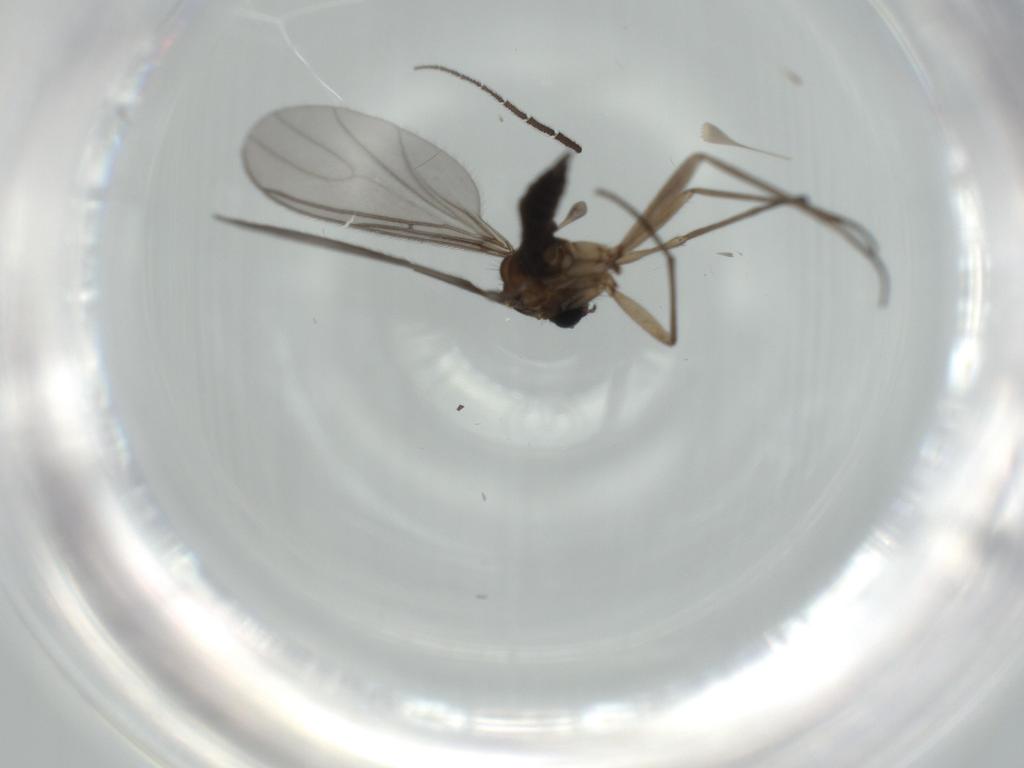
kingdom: Animalia
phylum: Arthropoda
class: Insecta
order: Diptera
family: Sciaridae
